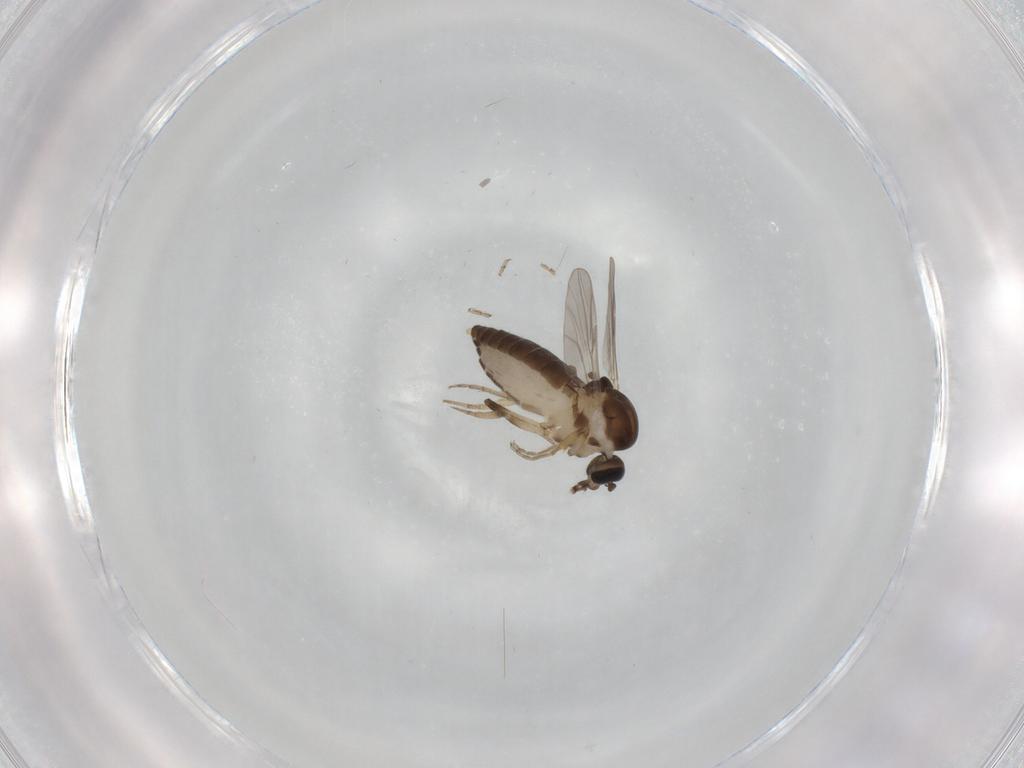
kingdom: Animalia
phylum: Arthropoda
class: Insecta
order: Diptera
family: Ceratopogonidae
